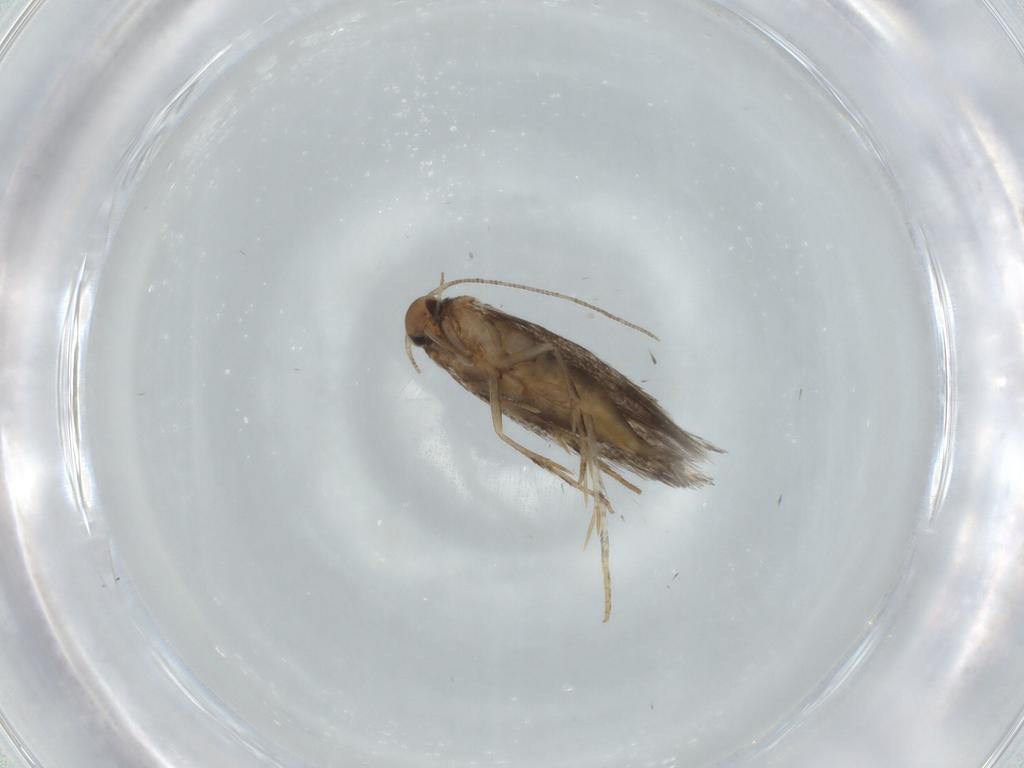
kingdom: Animalia
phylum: Arthropoda
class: Insecta
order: Lepidoptera
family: Elachistidae
